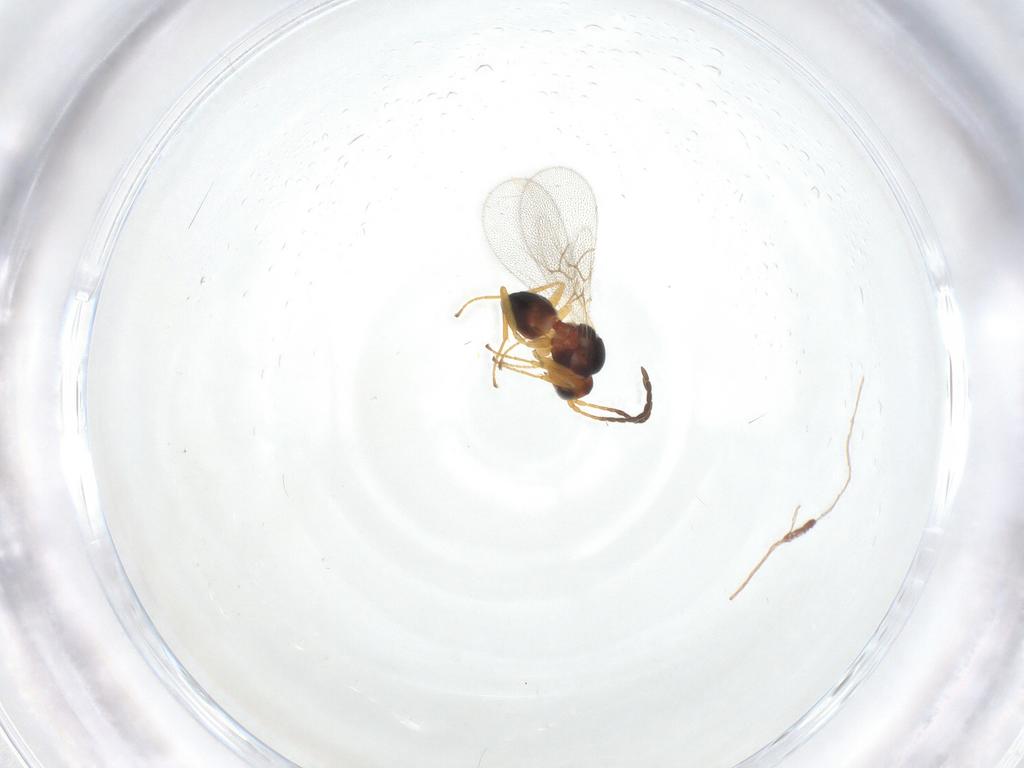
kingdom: Animalia
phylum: Arthropoda
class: Insecta
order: Hymenoptera
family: Figitidae
